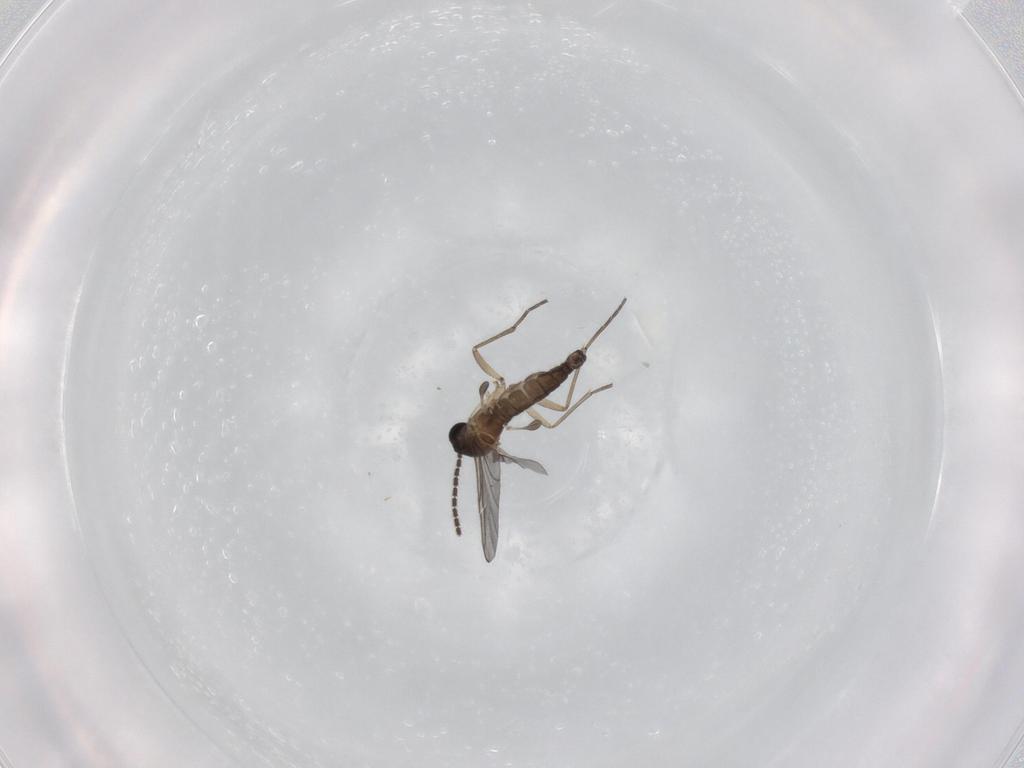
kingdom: Animalia
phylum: Arthropoda
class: Insecta
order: Diptera
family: Sciaridae
